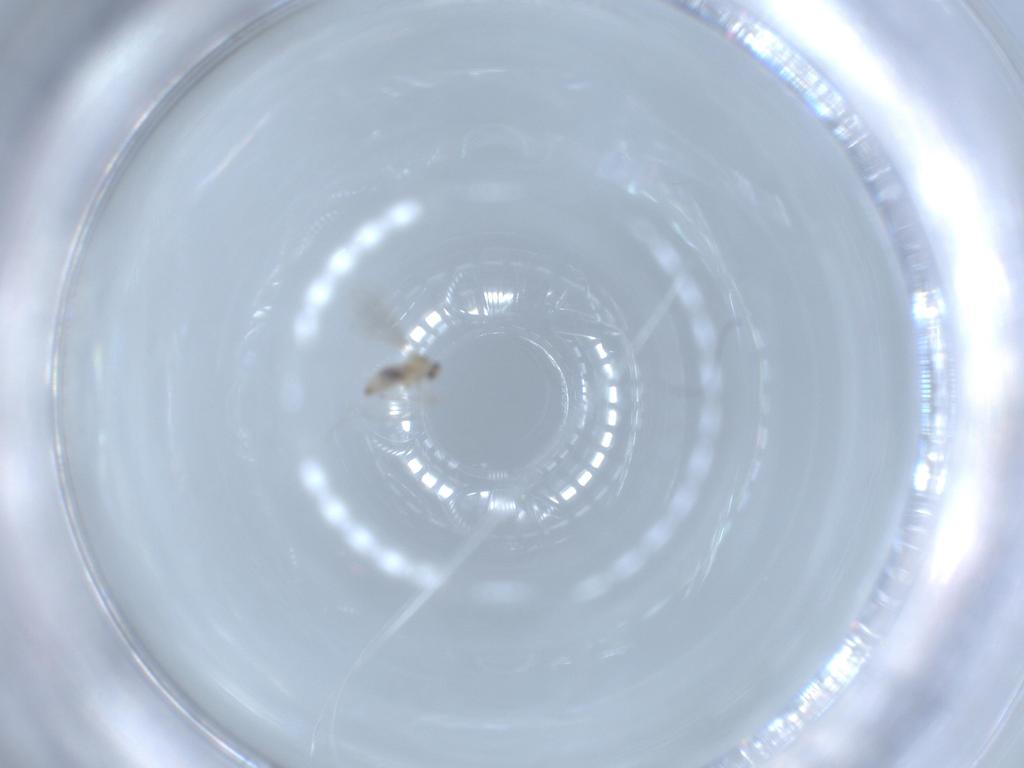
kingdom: Animalia
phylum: Arthropoda
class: Insecta
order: Diptera
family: Cecidomyiidae
